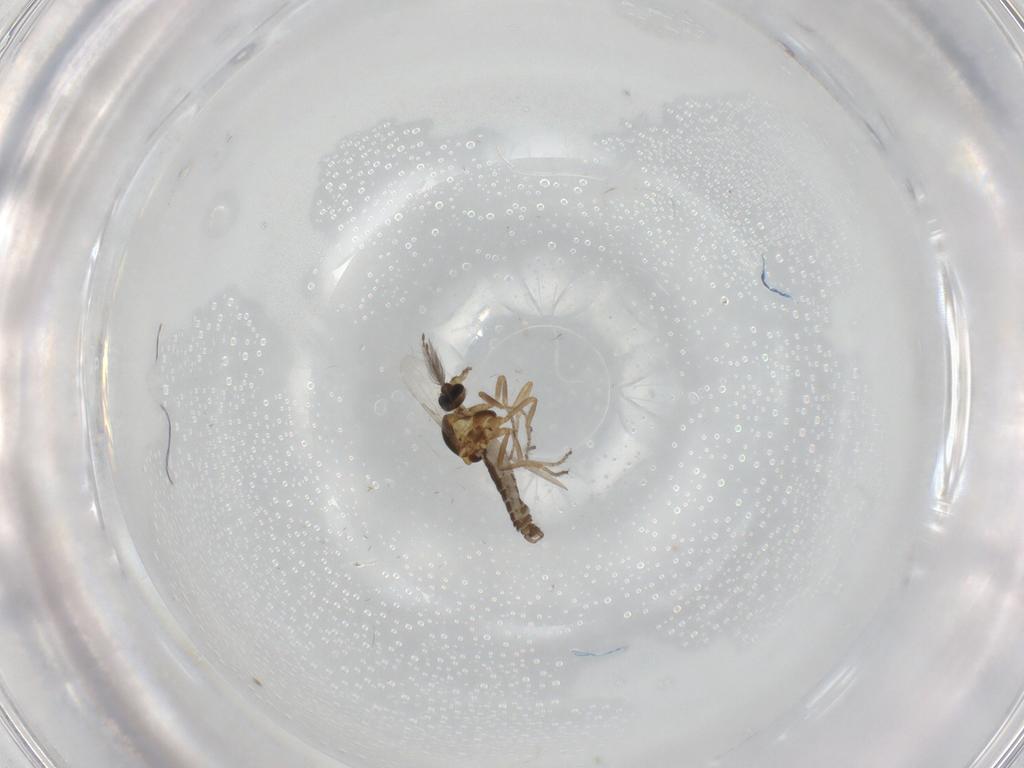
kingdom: Animalia
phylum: Arthropoda
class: Insecta
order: Diptera
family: Ceratopogonidae
